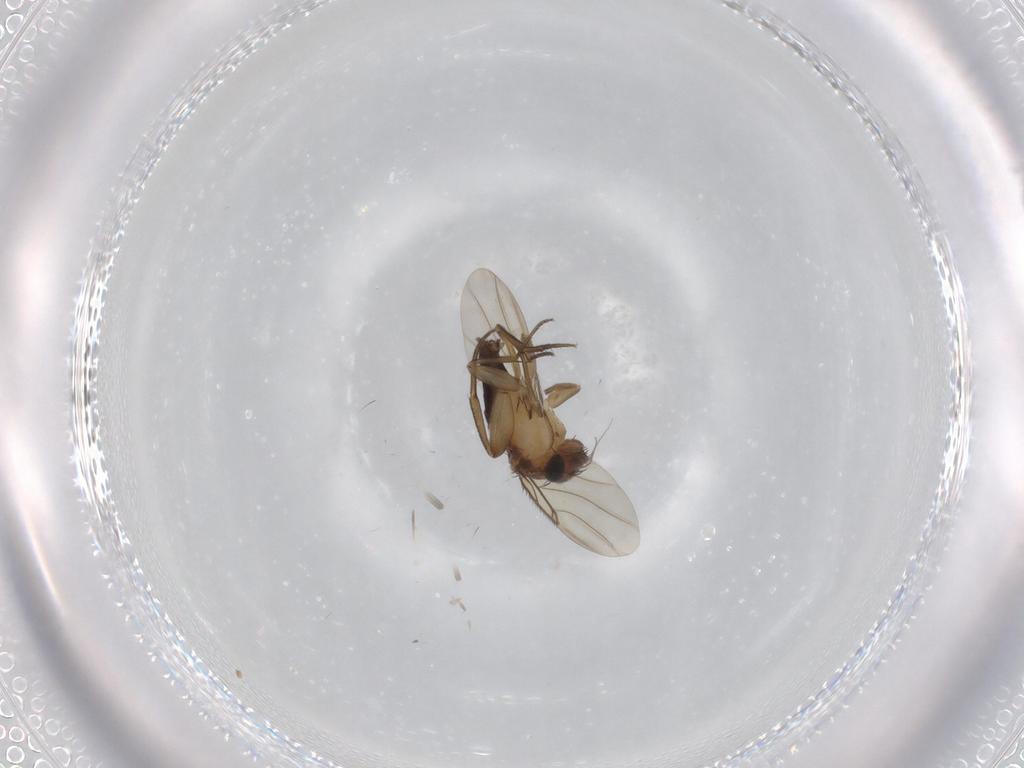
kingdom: Animalia
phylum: Arthropoda
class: Insecta
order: Diptera
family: Phoridae
